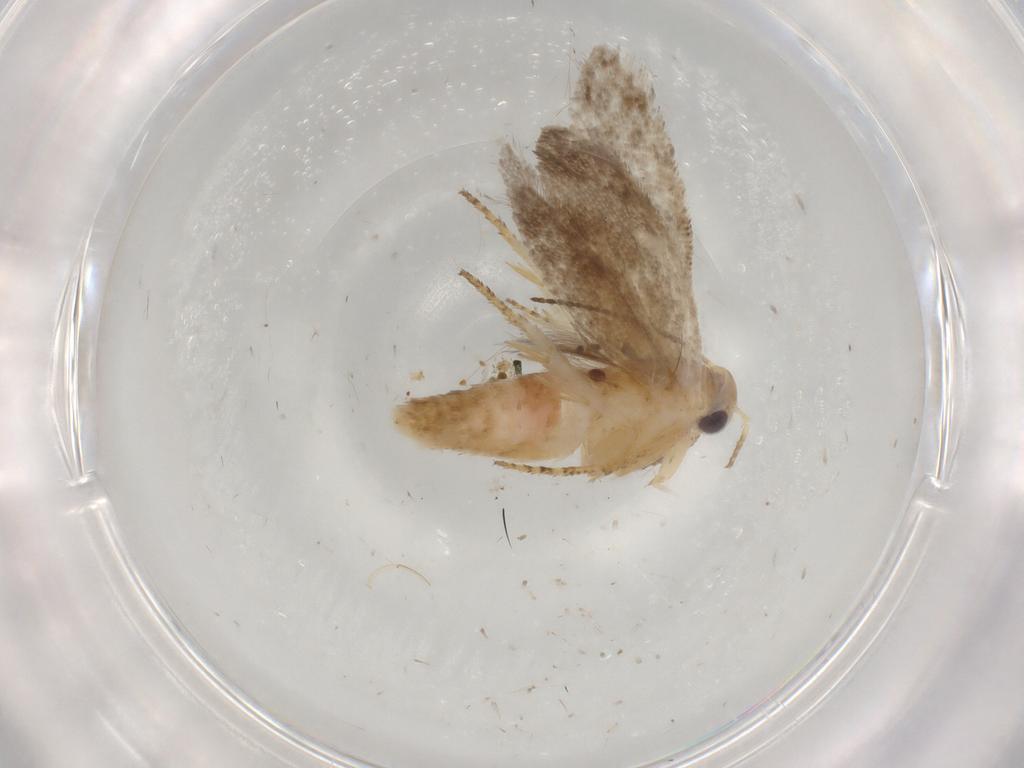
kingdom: Animalia
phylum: Arthropoda
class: Insecta
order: Lepidoptera
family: Plutellidae
